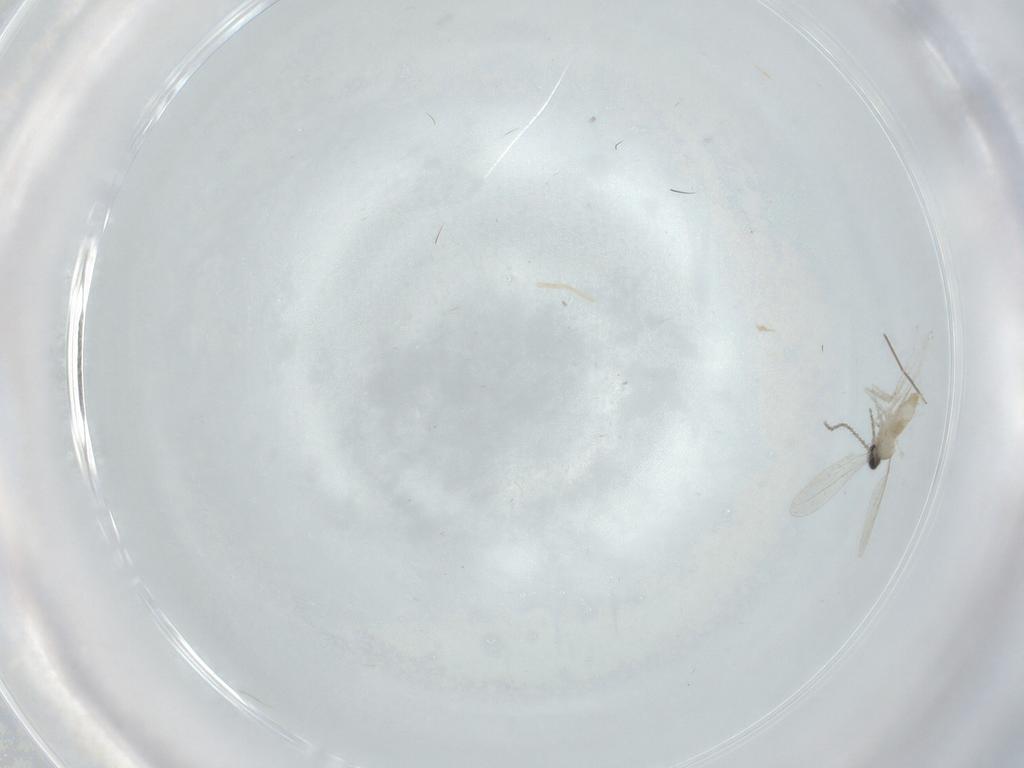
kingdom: Animalia
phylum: Arthropoda
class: Insecta
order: Diptera
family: Cecidomyiidae
